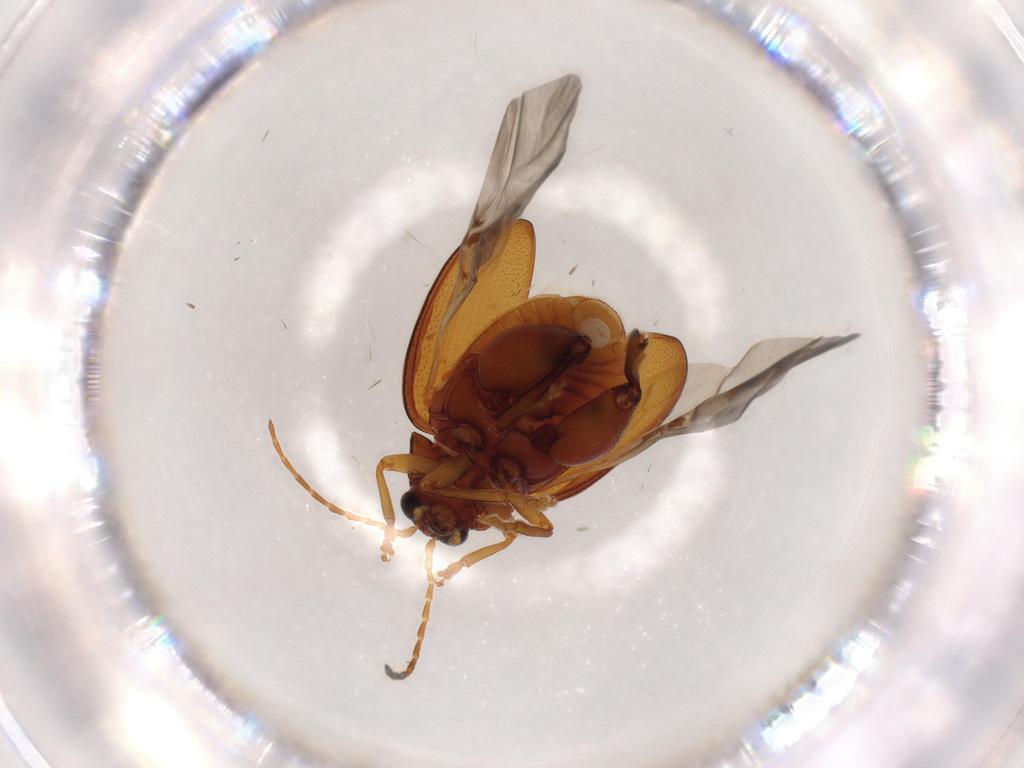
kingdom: Animalia
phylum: Arthropoda
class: Insecta
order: Coleoptera
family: Chrysomelidae
